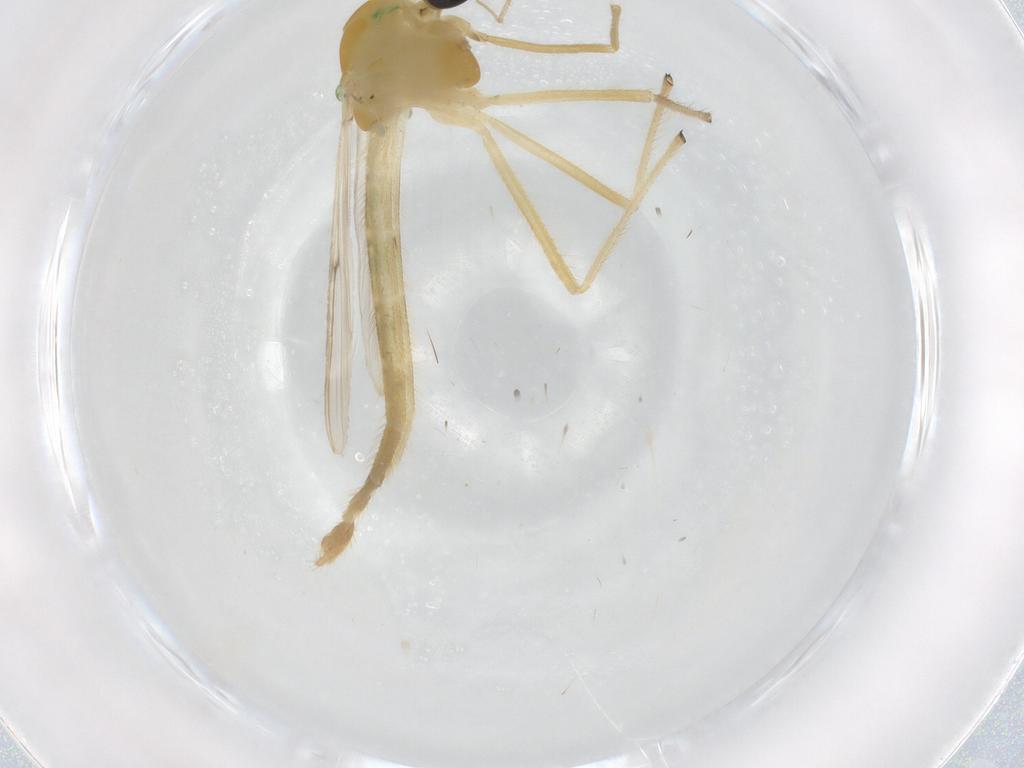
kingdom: Animalia
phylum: Arthropoda
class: Insecta
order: Diptera
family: Chironomidae
